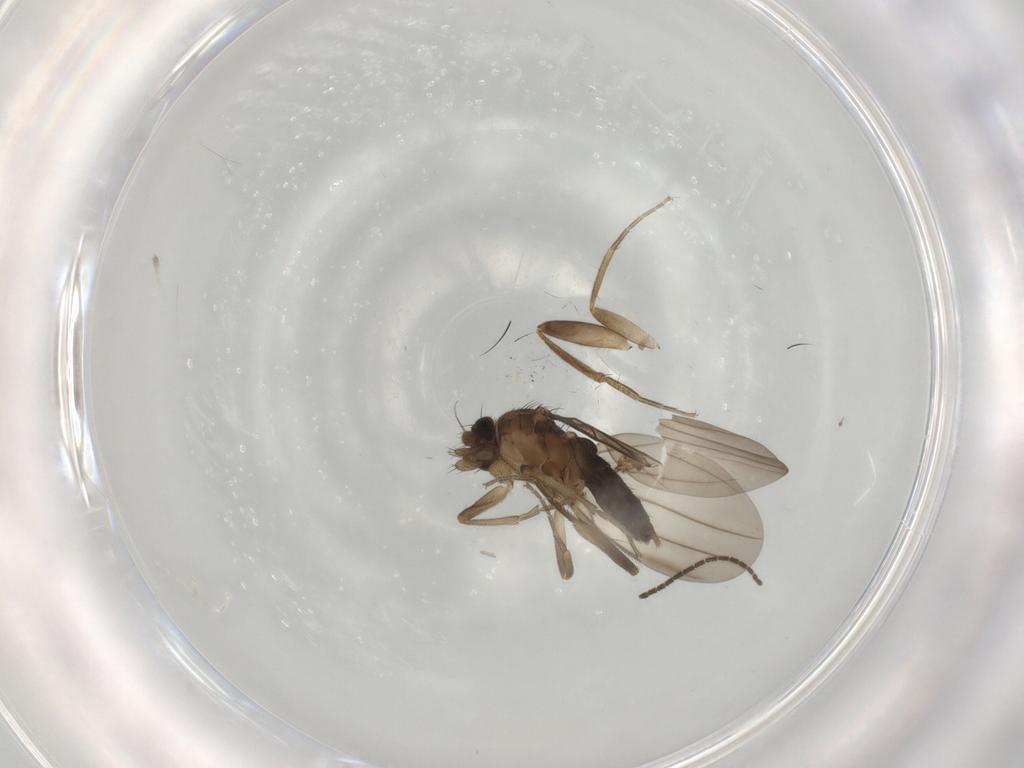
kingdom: Animalia
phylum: Arthropoda
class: Insecta
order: Diptera
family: Phoridae
